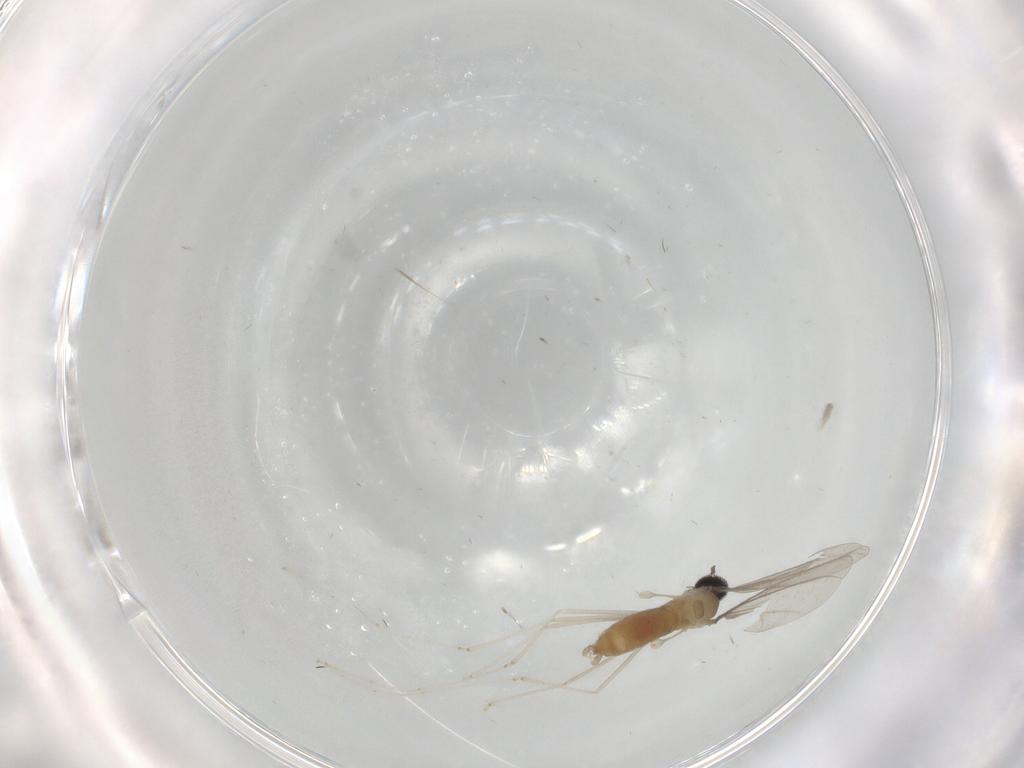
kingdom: Animalia
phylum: Arthropoda
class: Insecta
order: Diptera
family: Cecidomyiidae
